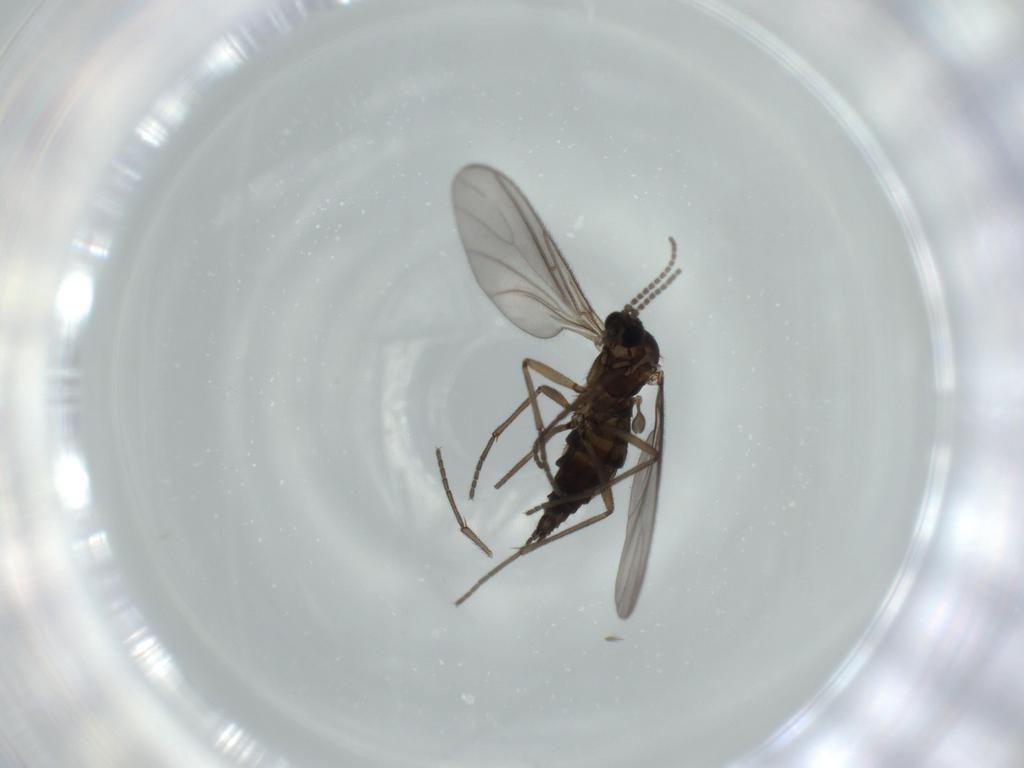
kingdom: Animalia
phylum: Arthropoda
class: Insecta
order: Diptera
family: Sciaridae
